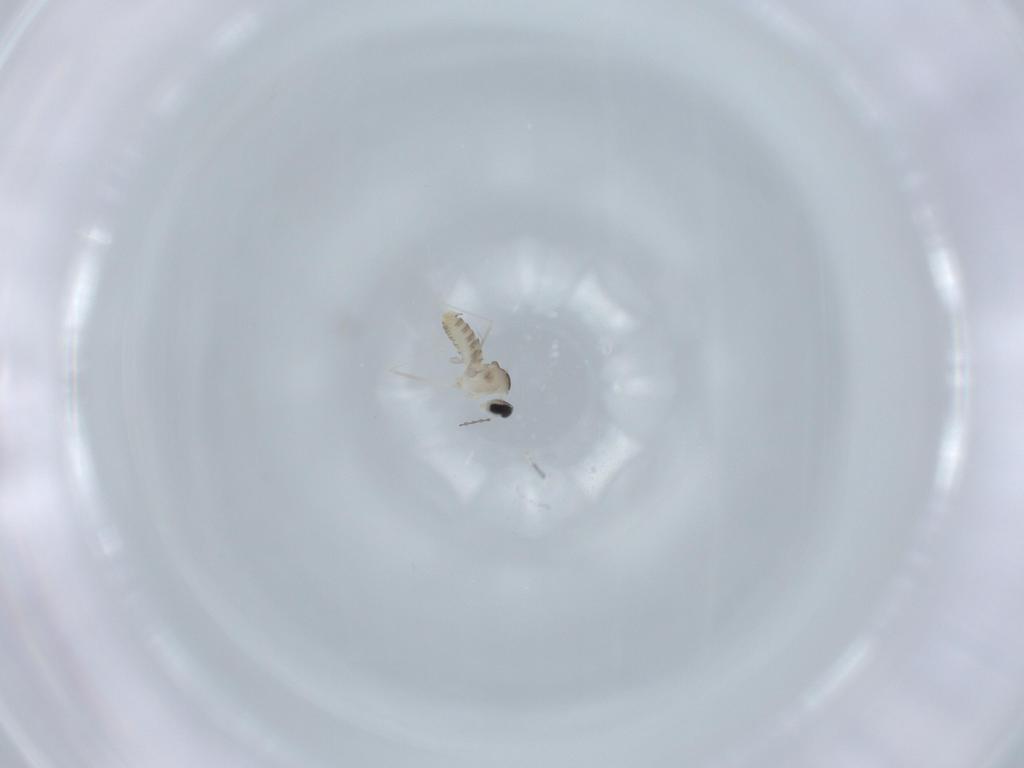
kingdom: Animalia
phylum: Arthropoda
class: Insecta
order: Diptera
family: Cecidomyiidae
